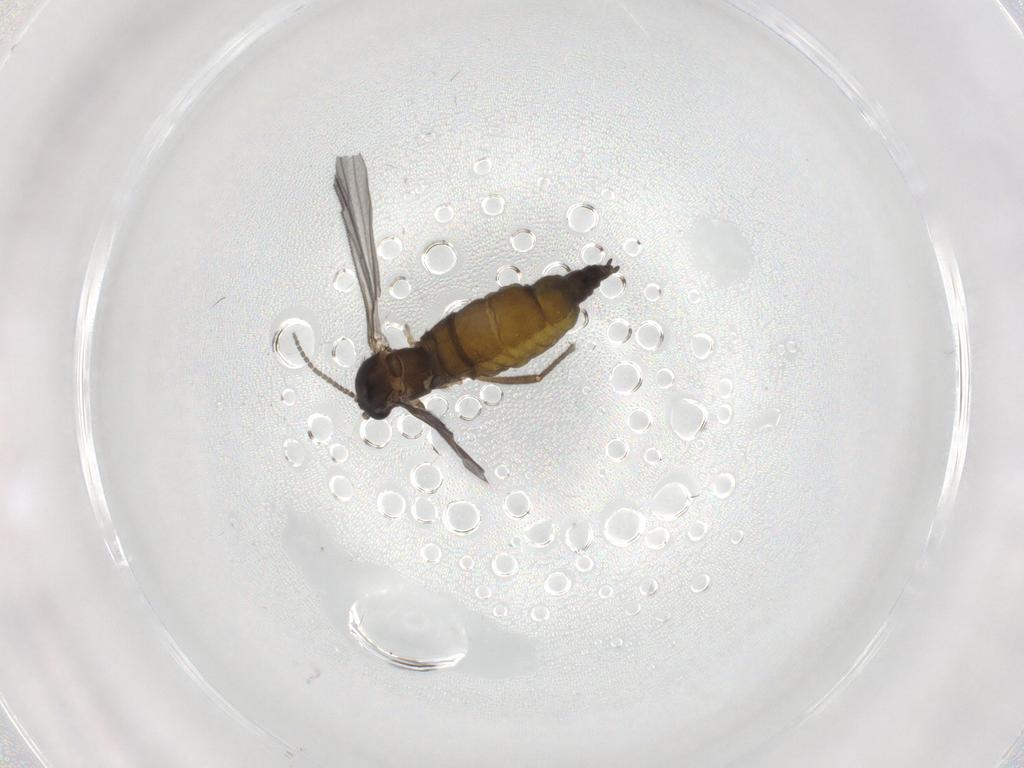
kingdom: Animalia
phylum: Arthropoda
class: Insecta
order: Diptera
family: Sciaridae
